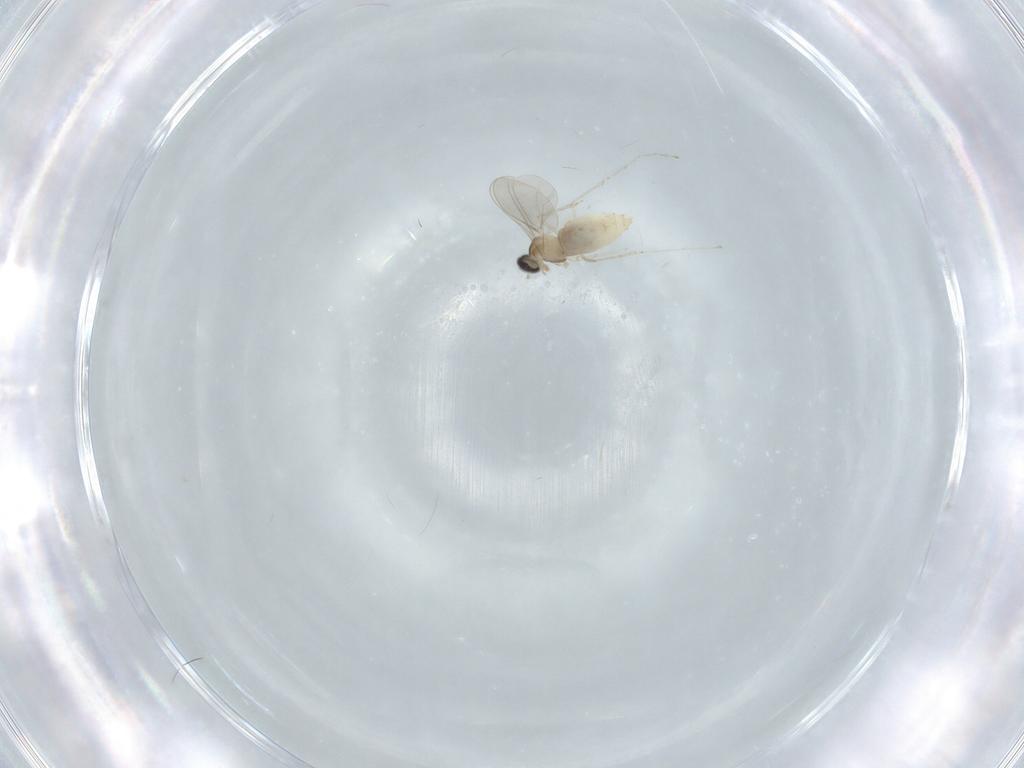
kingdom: Animalia
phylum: Arthropoda
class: Insecta
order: Diptera
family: Cecidomyiidae
